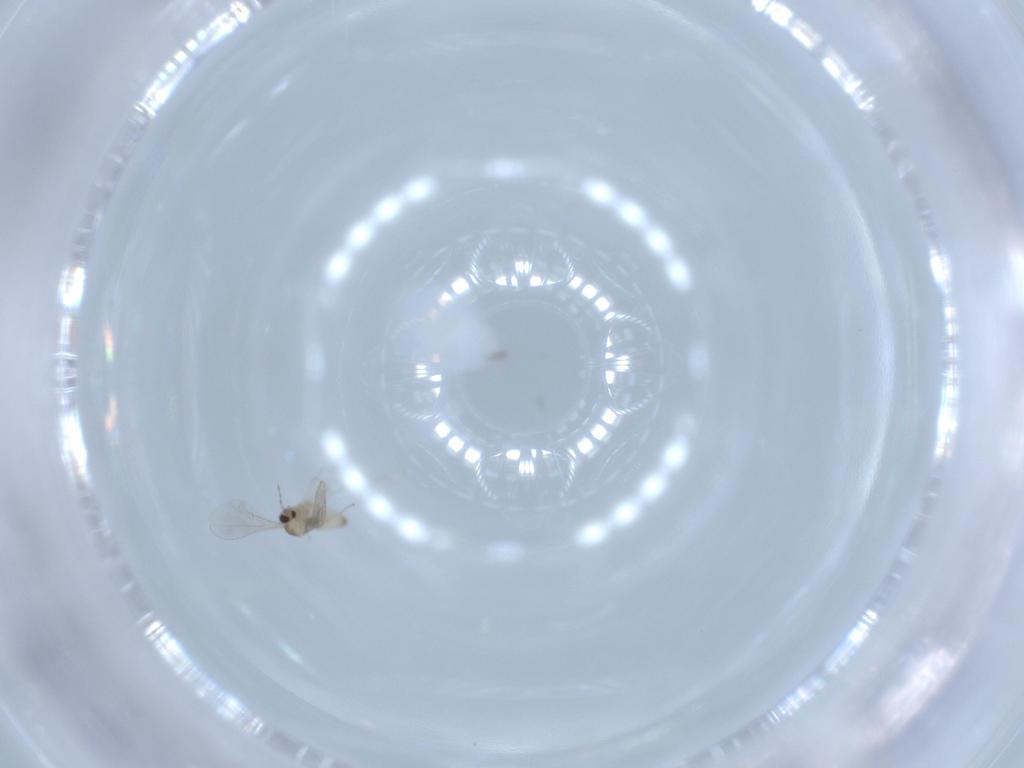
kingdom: Animalia
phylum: Arthropoda
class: Insecta
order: Diptera
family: Cecidomyiidae
